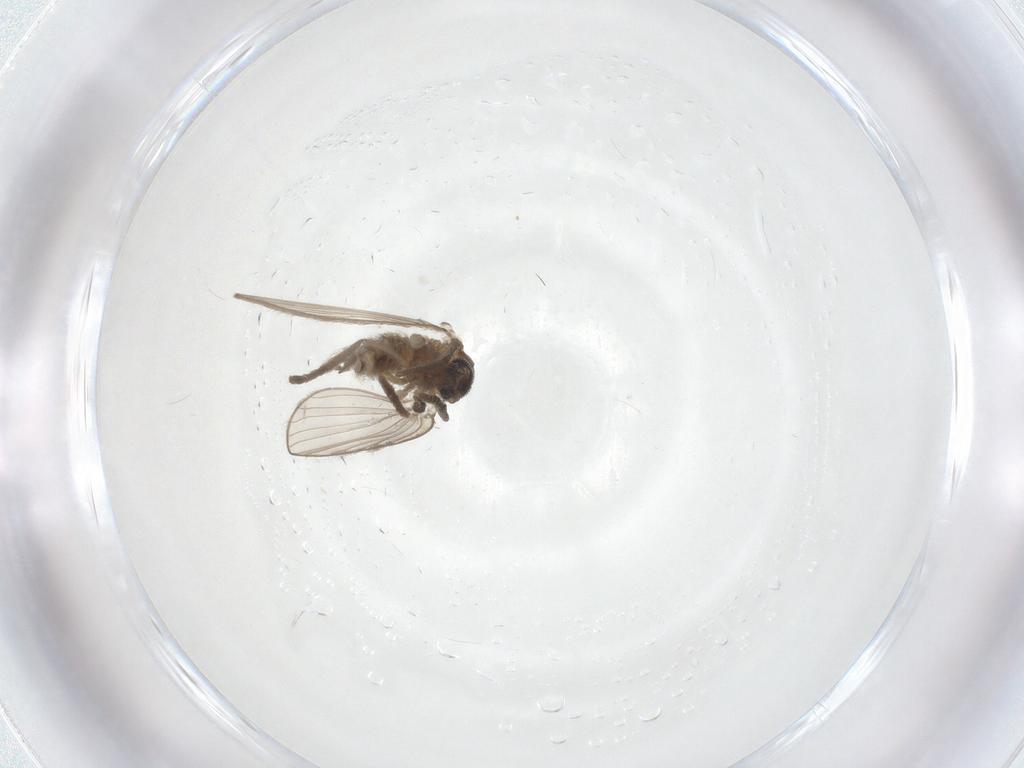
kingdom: Animalia
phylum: Arthropoda
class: Insecta
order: Diptera
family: Psychodidae
